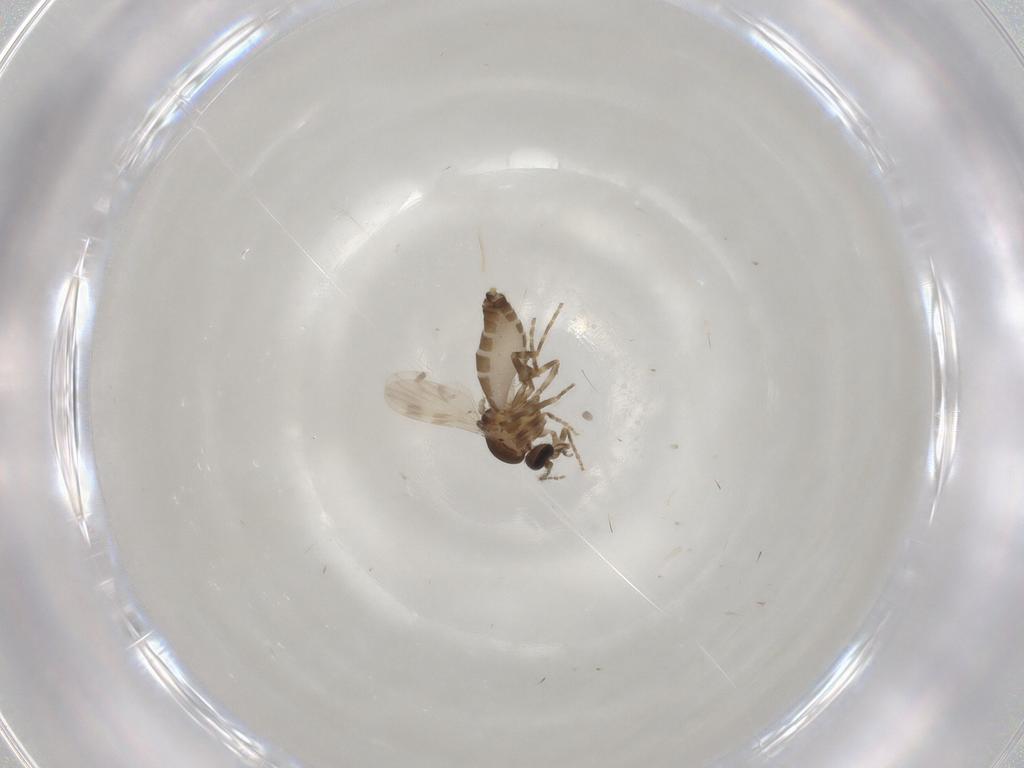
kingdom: Animalia
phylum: Arthropoda
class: Insecta
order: Diptera
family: Ceratopogonidae
